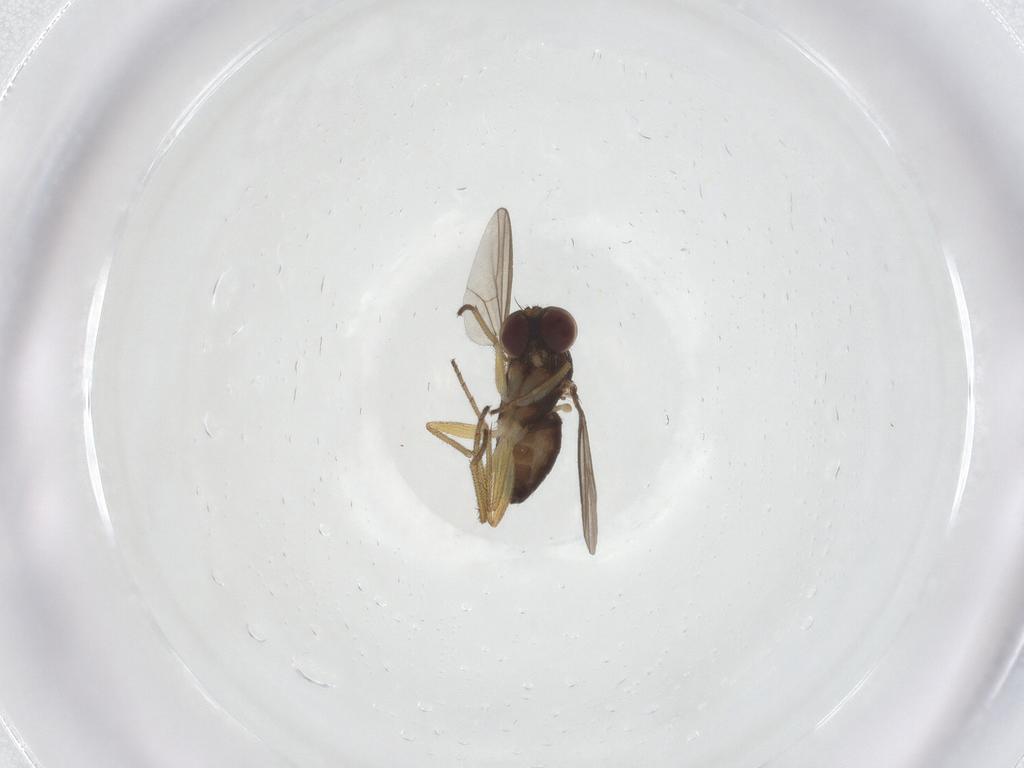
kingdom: Animalia
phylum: Arthropoda
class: Insecta
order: Diptera
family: Dolichopodidae
